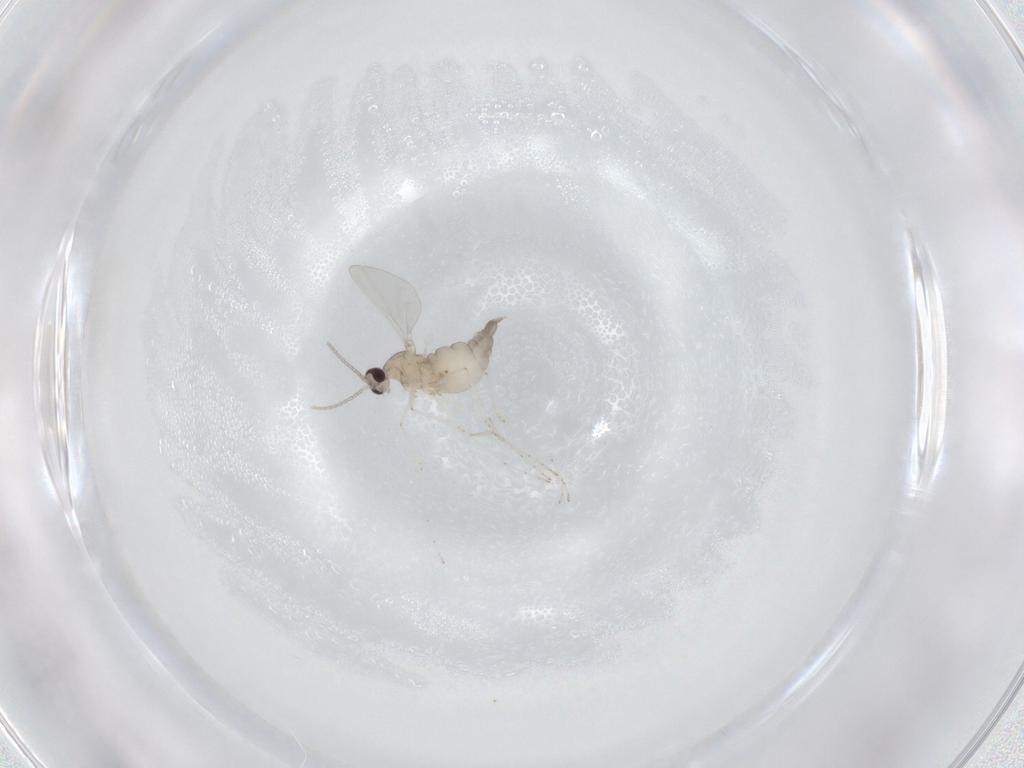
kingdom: Animalia
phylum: Arthropoda
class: Insecta
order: Diptera
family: Cecidomyiidae
